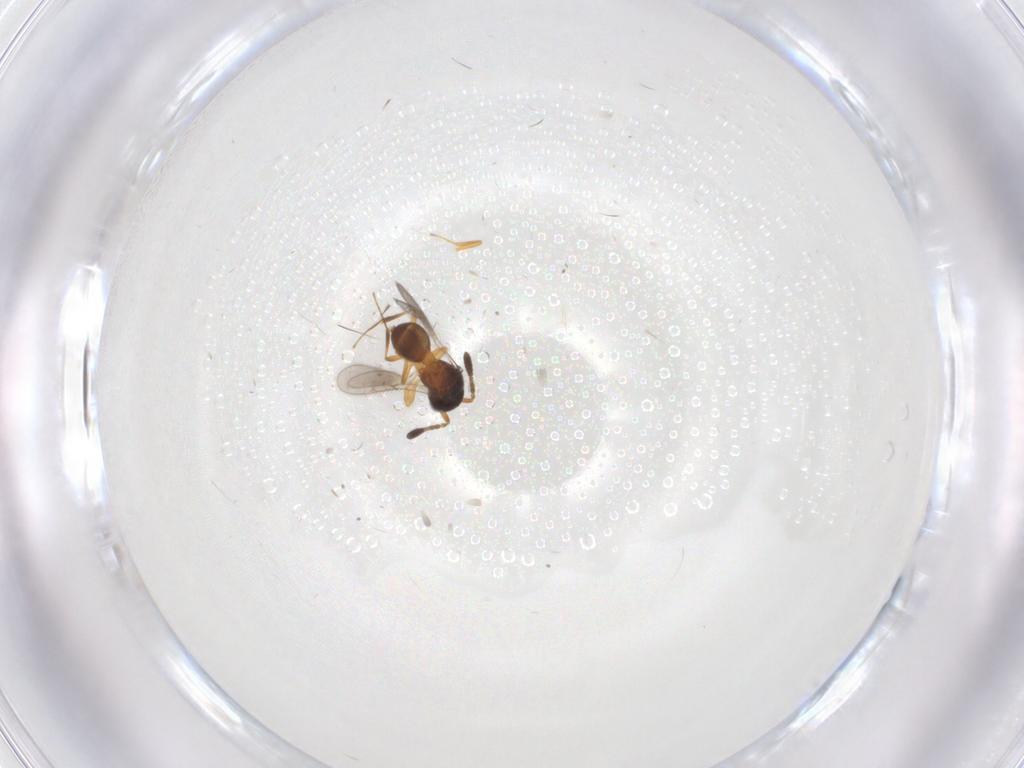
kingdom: Animalia
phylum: Arthropoda
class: Insecta
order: Hymenoptera
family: Scelionidae
